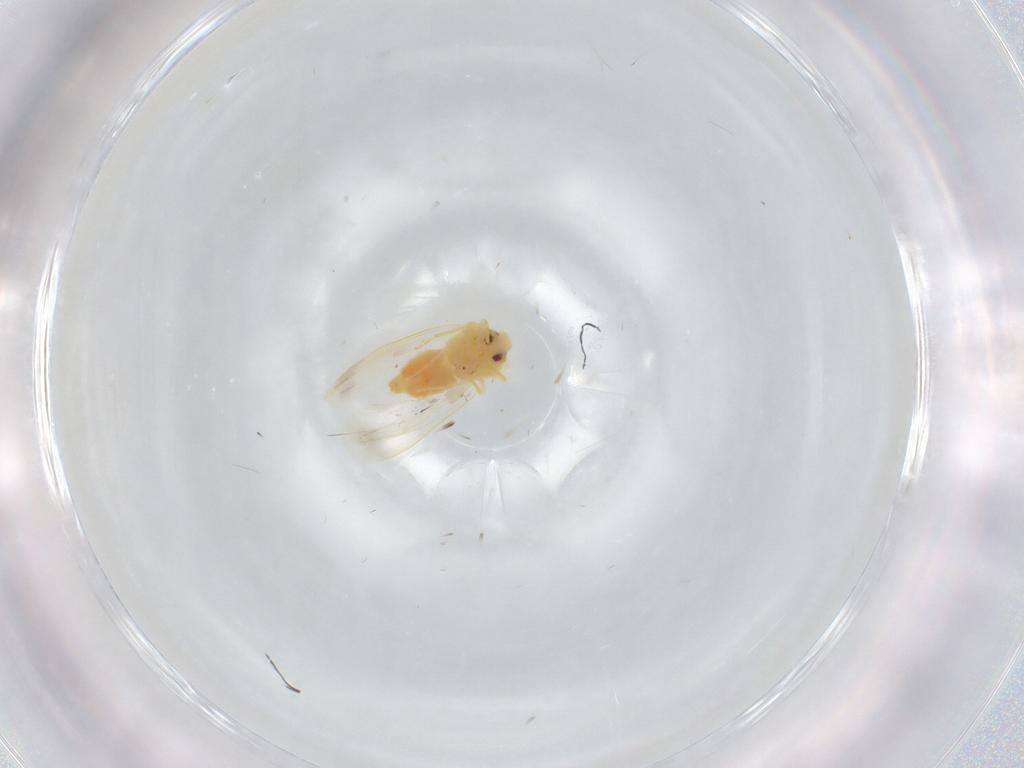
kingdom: Animalia
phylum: Arthropoda
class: Insecta
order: Hemiptera
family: Aleyrodidae
